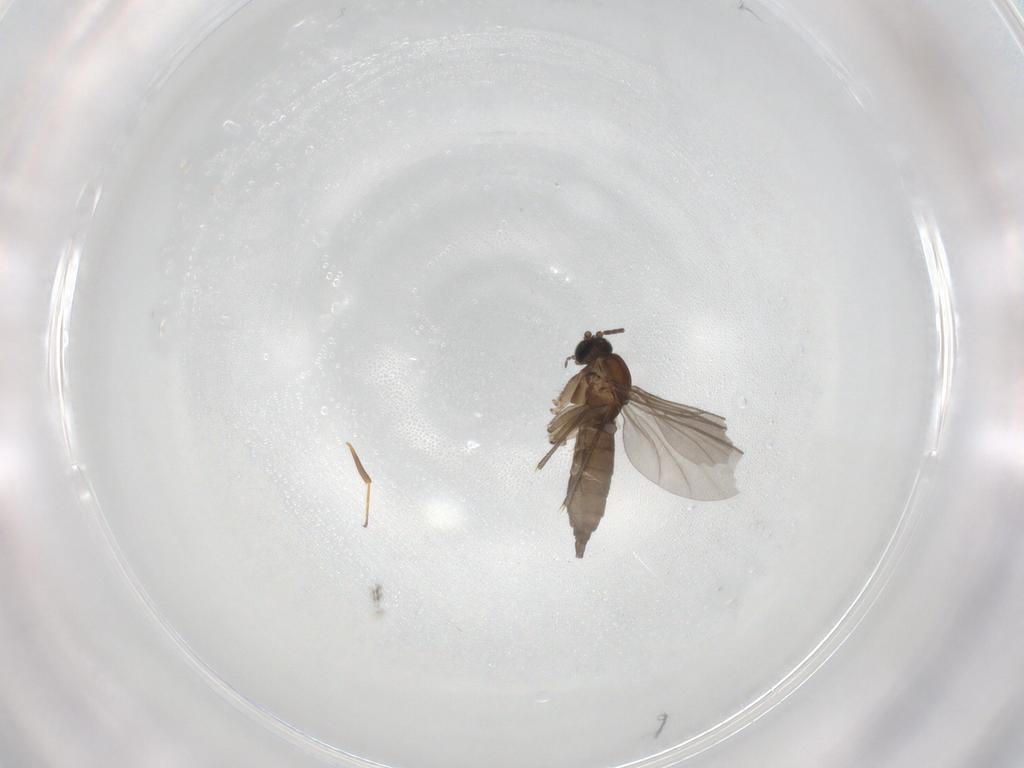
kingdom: Animalia
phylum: Arthropoda
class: Insecta
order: Diptera
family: Sciaridae
